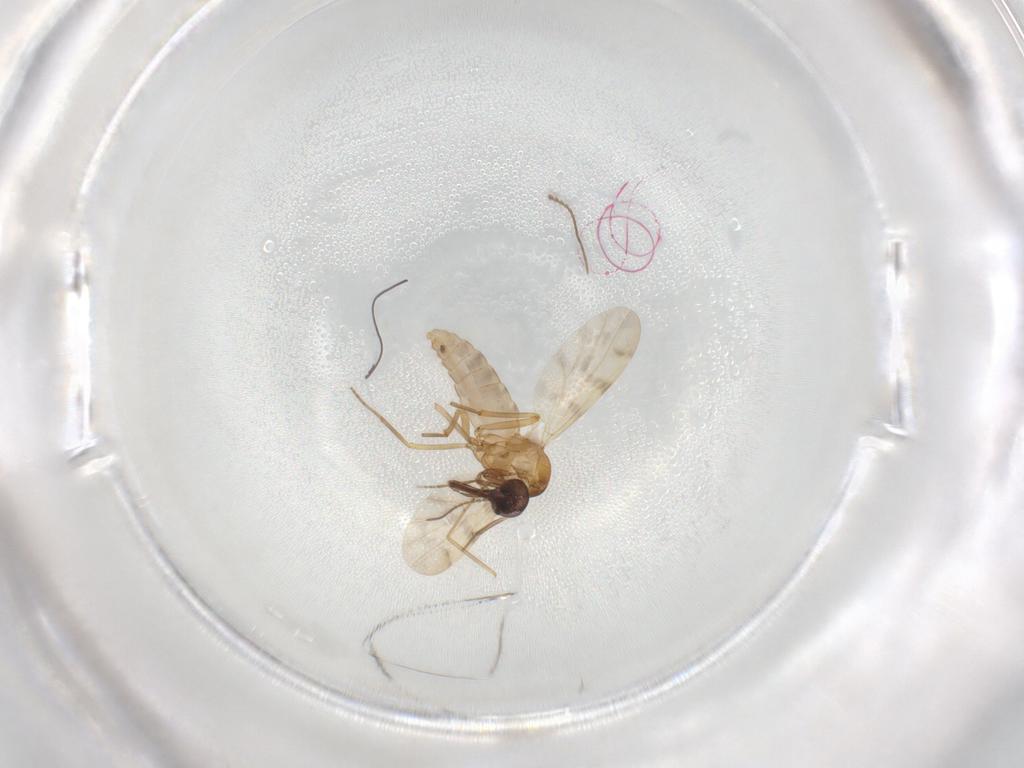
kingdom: Animalia
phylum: Arthropoda
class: Insecta
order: Diptera
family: Ceratopogonidae
